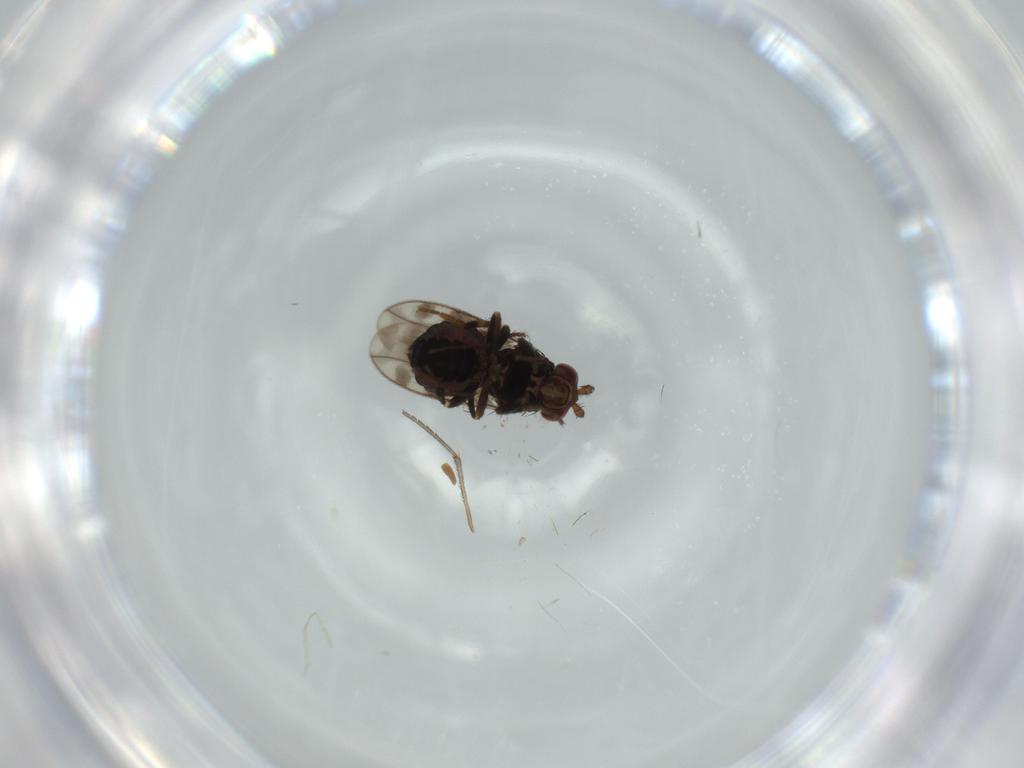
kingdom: Animalia
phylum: Arthropoda
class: Insecta
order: Diptera
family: Sphaeroceridae
